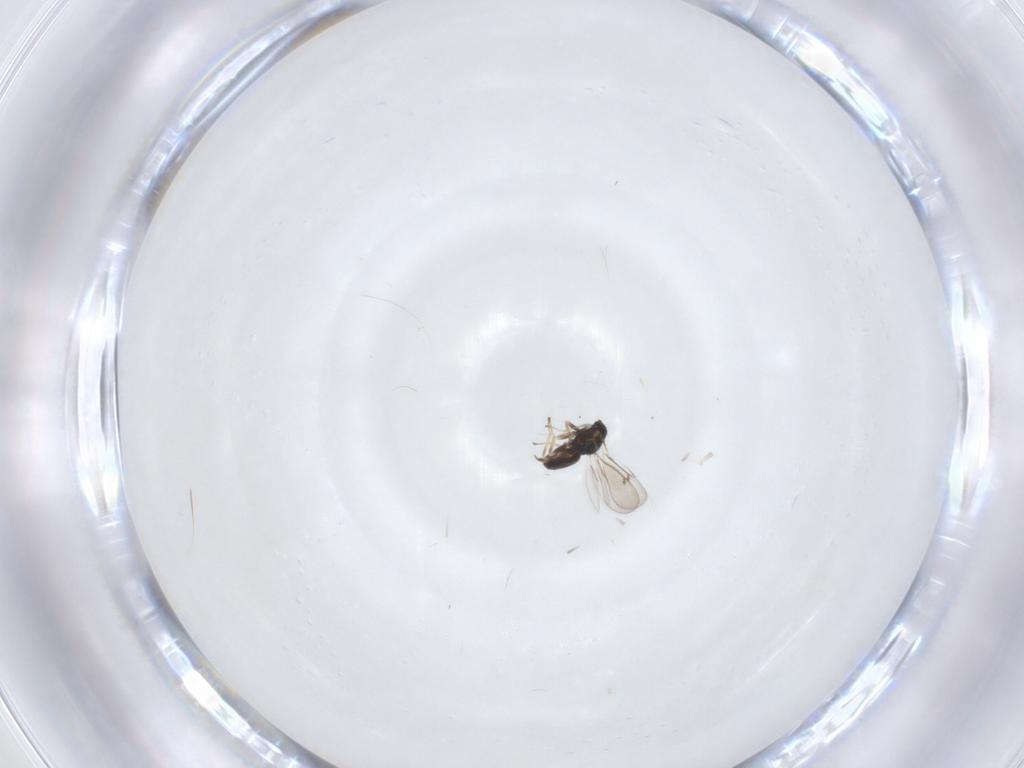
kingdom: Animalia
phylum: Arthropoda
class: Insecta
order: Hymenoptera
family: Eulophidae
